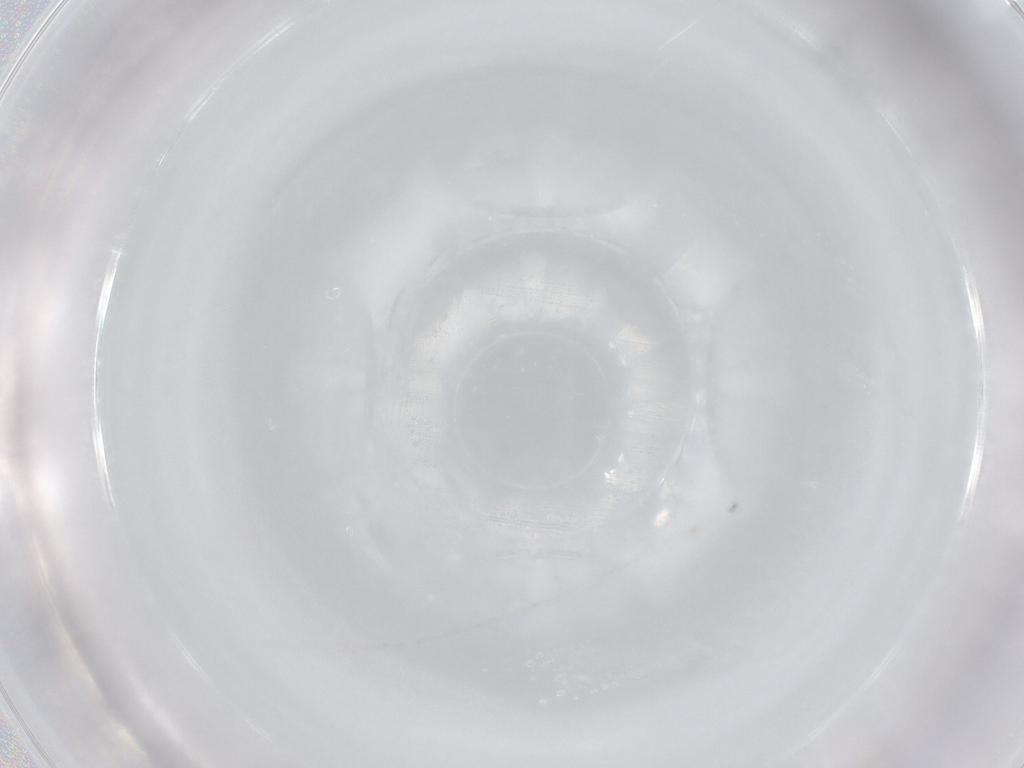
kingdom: Animalia
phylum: Arthropoda
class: Collembola
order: Entomobryomorpha
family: Entomobryidae
